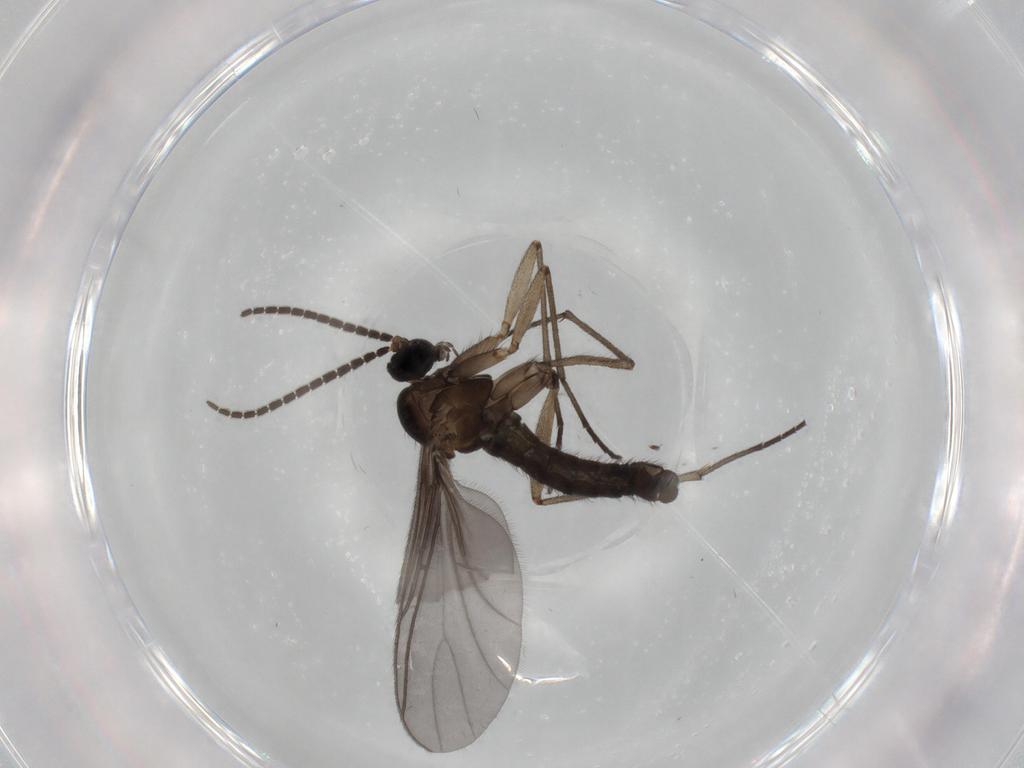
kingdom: Animalia
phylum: Arthropoda
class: Insecta
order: Diptera
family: Sciaridae
